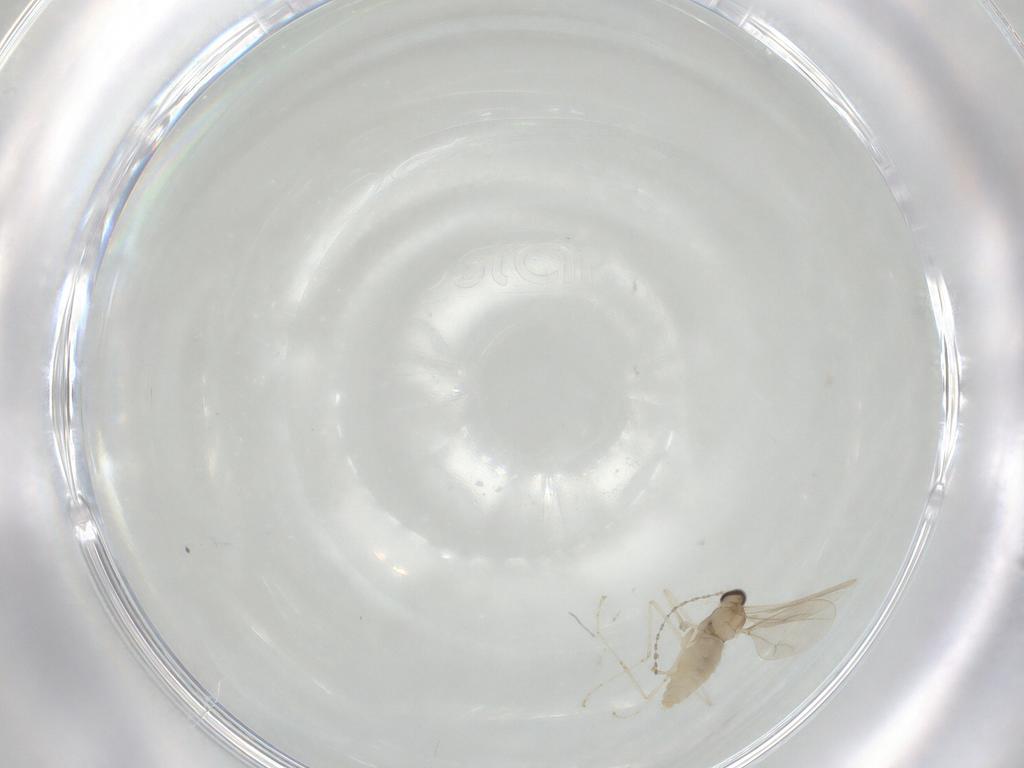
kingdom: Animalia
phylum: Arthropoda
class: Insecta
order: Diptera
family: Cecidomyiidae
